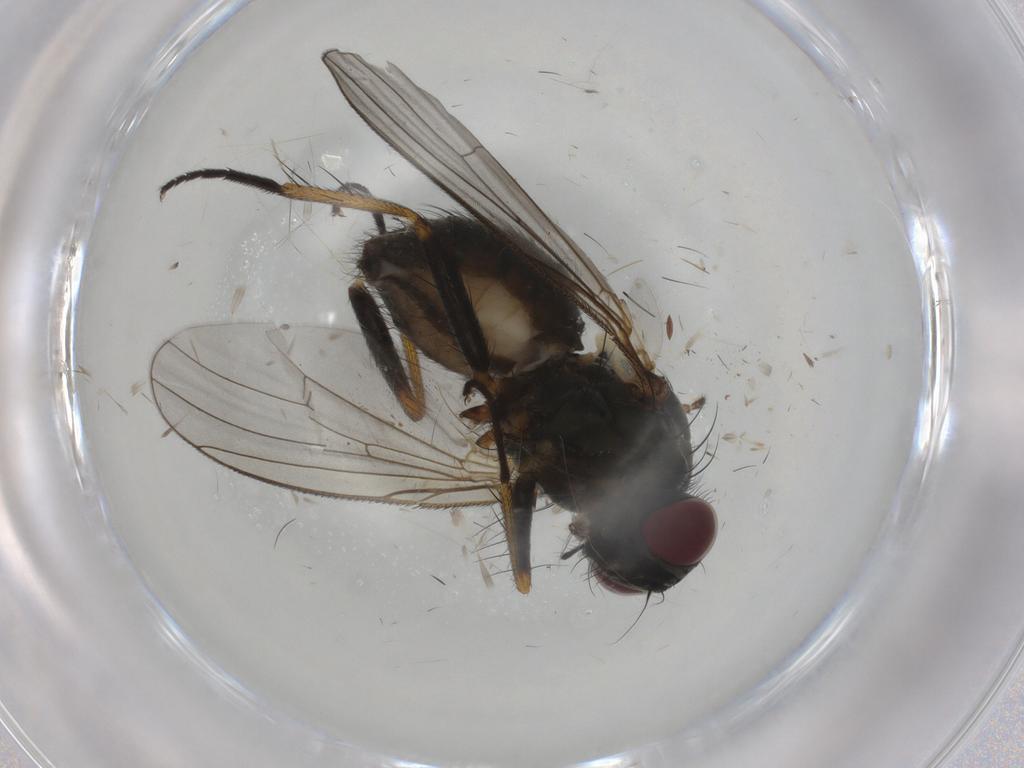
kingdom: Animalia
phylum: Arthropoda
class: Insecta
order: Diptera
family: Muscidae
